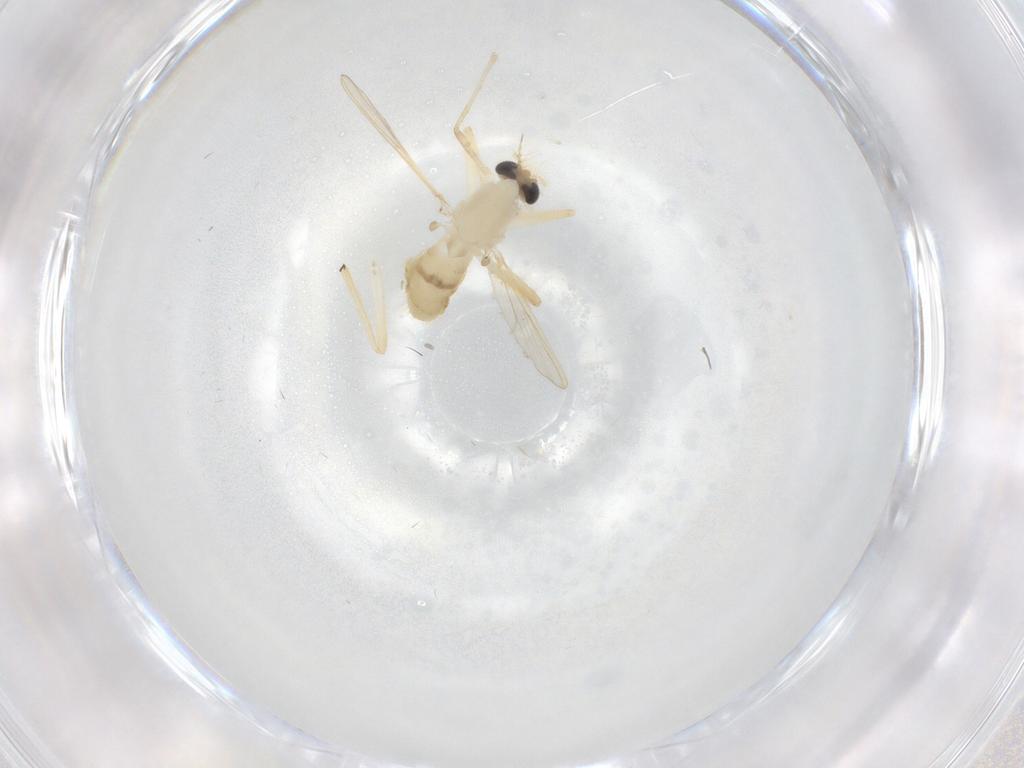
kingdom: Animalia
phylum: Arthropoda
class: Insecta
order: Diptera
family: Chironomidae
